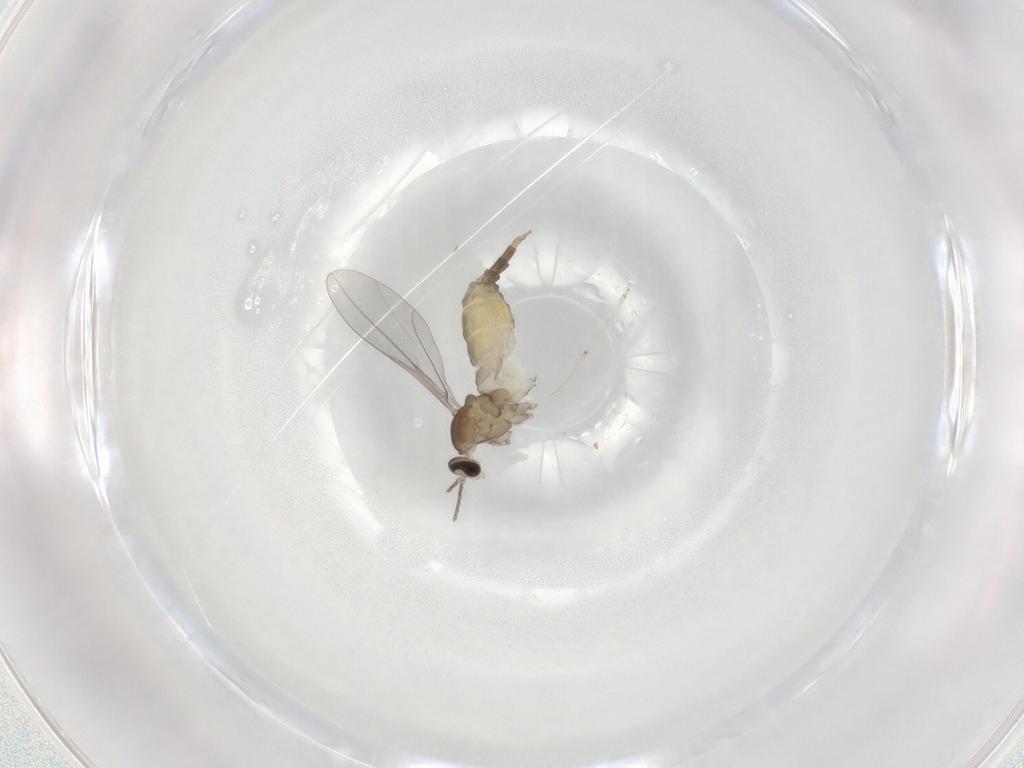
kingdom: Animalia
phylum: Arthropoda
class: Insecta
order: Diptera
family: Cecidomyiidae
